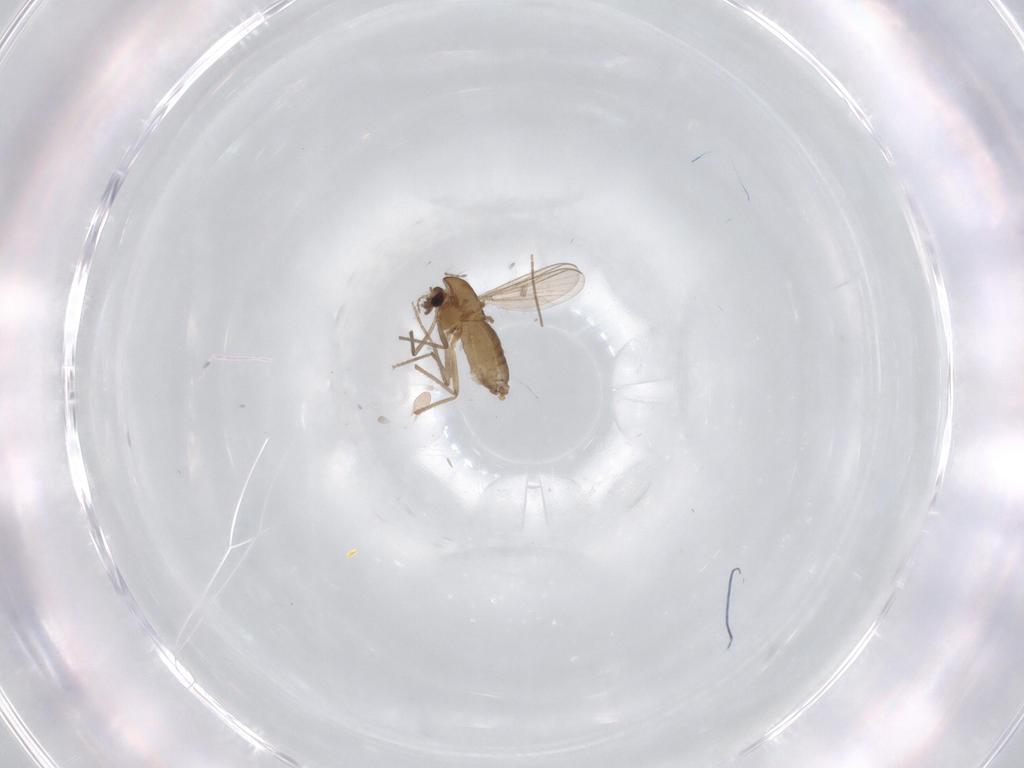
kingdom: Animalia
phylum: Arthropoda
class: Insecta
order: Diptera
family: Chironomidae
